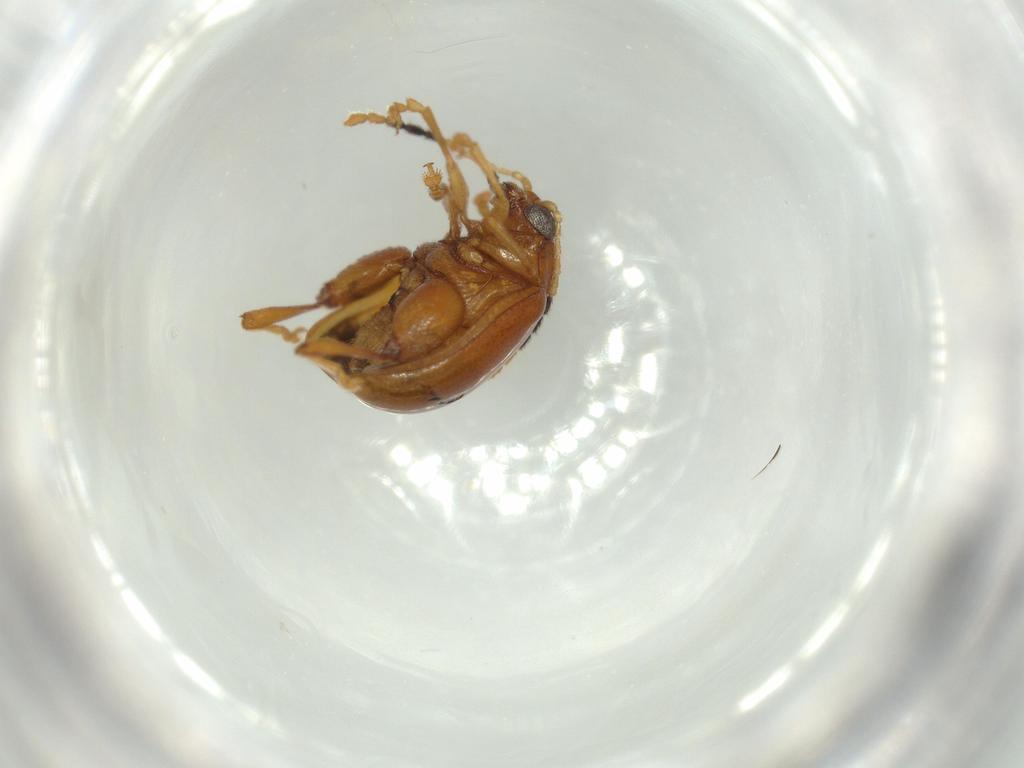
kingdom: Animalia
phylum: Arthropoda
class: Insecta
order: Coleoptera
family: Chrysomelidae
